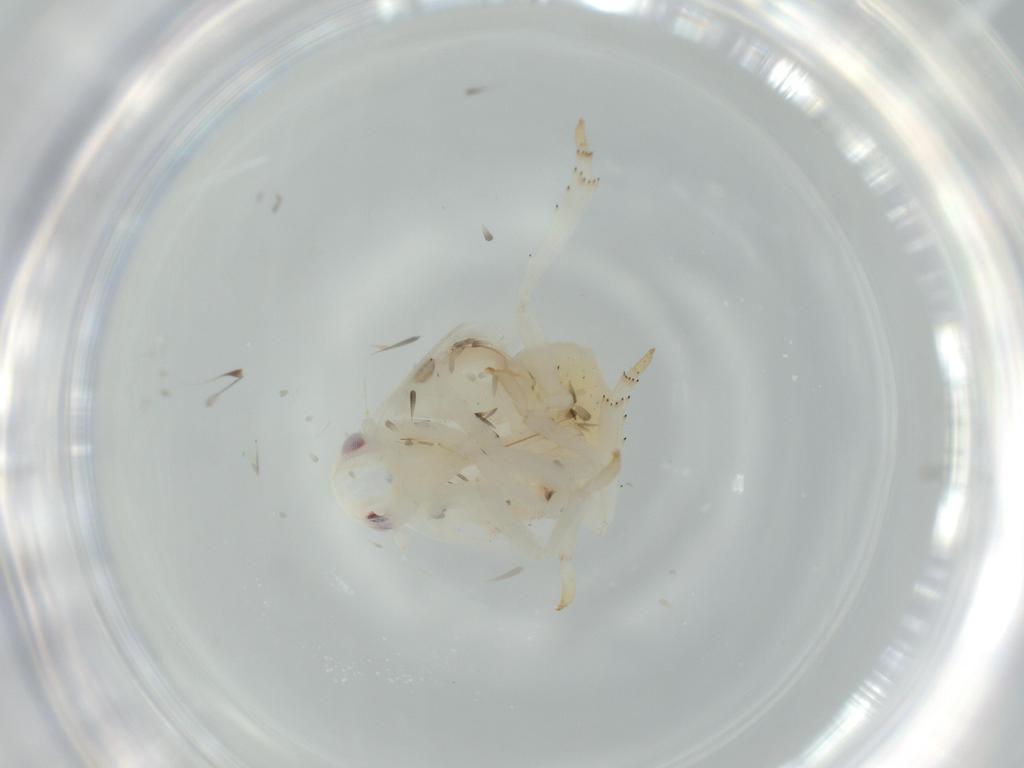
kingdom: Animalia
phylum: Arthropoda
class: Insecta
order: Hemiptera
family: Flatidae
